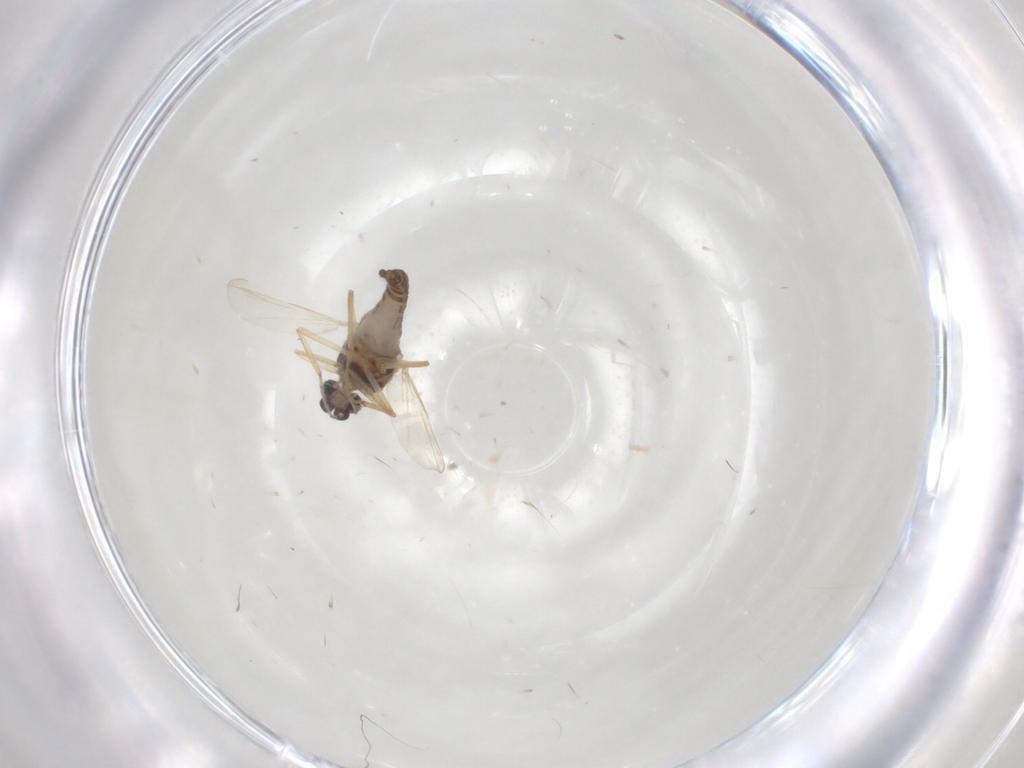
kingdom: Animalia
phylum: Arthropoda
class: Insecta
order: Diptera
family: Ceratopogonidae
